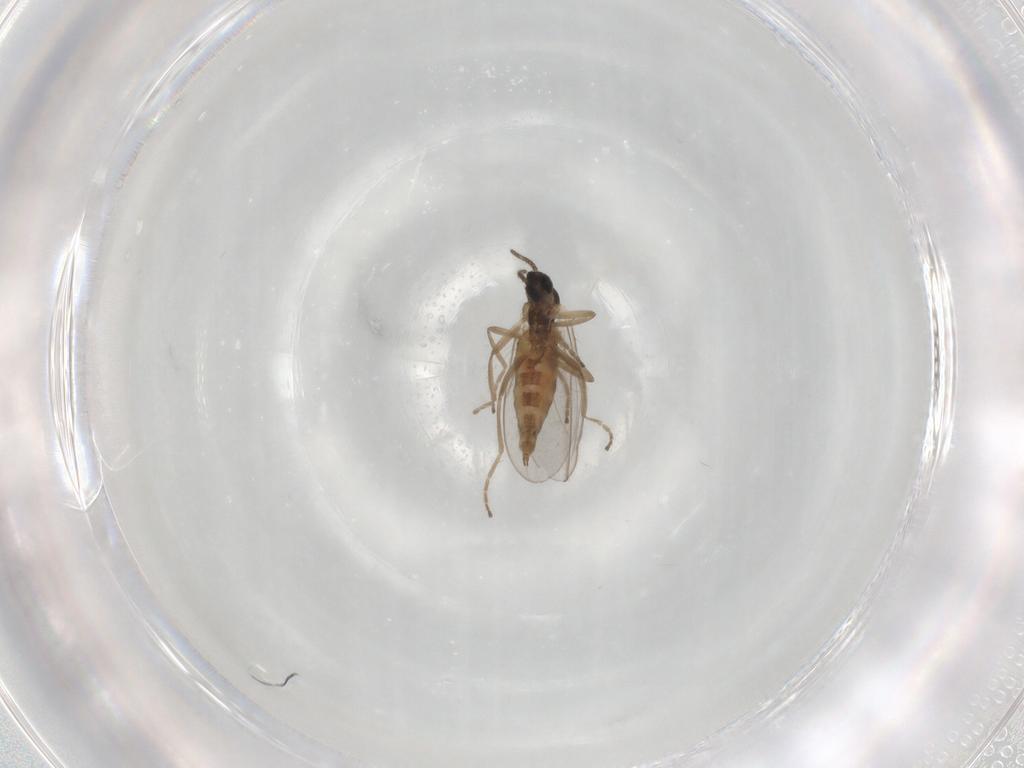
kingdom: Animalia
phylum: Arthropoda
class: Insecta
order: Diptera
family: Cecidomyiidae
